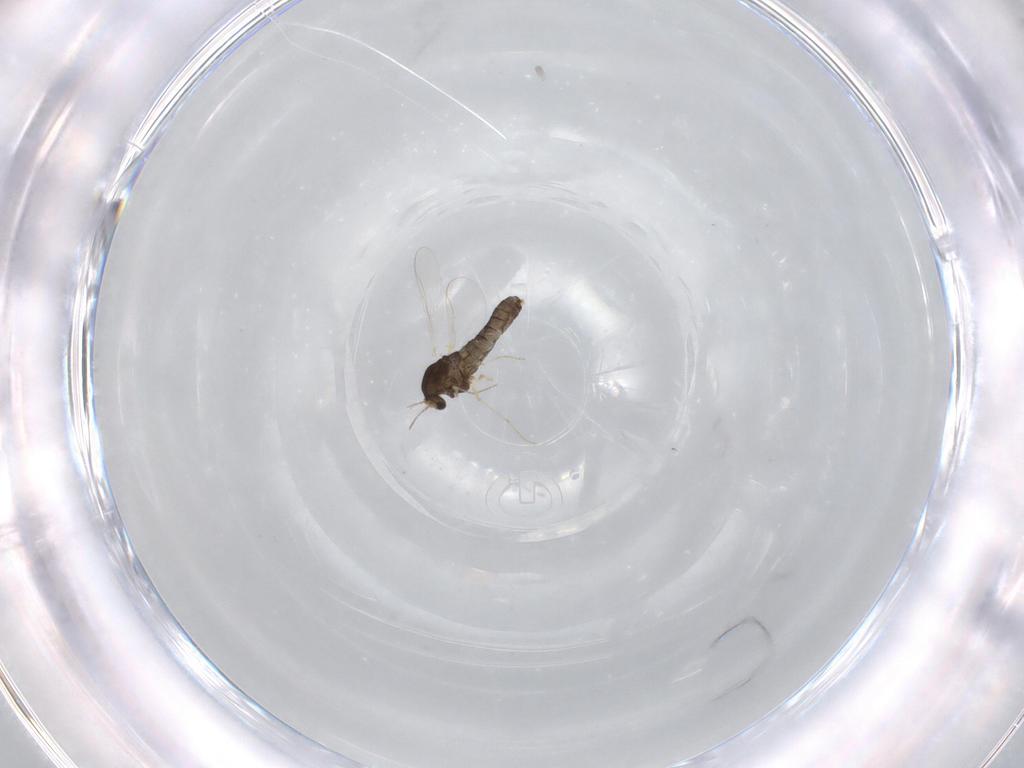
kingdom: Animalia
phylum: Arthropoda
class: Insecta
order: Diptera
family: Chironomidae
